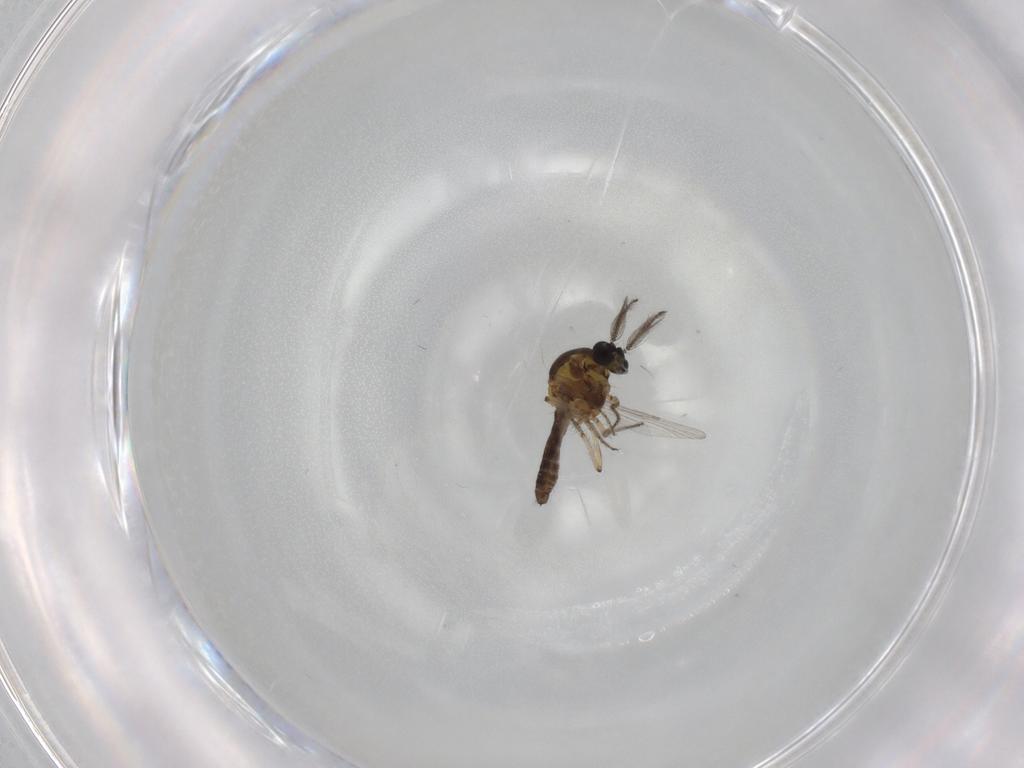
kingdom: Animalia
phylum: Arthropoda
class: Insecta
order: Diptera
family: Ceratopogonidae
